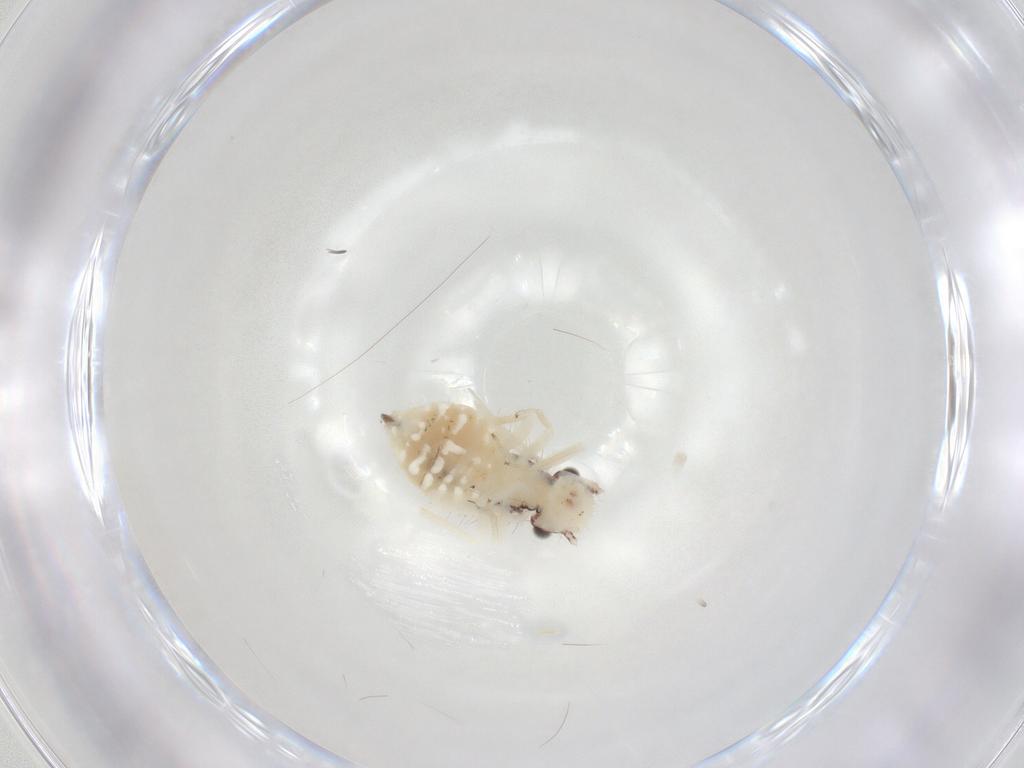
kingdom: Animalia
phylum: Arthropoda
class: Insecta
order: Psocodea
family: Philotarsidae
